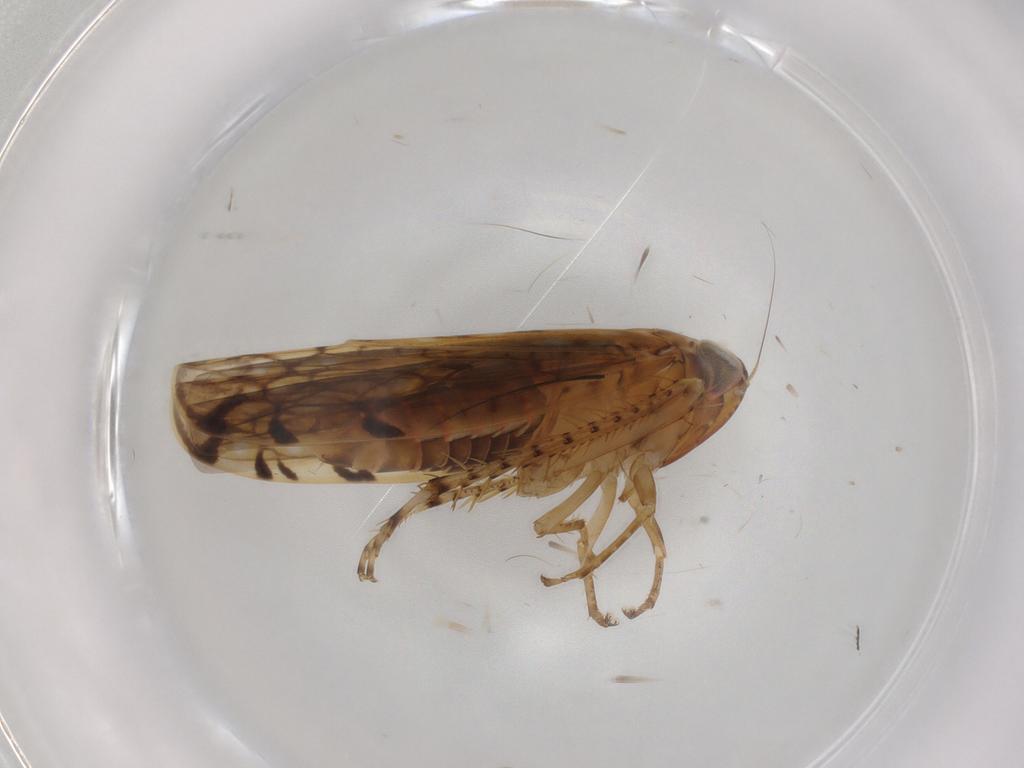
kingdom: Animalia
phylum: Arthropoda
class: Insecta
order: Hemiptera
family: Cicadellidae
